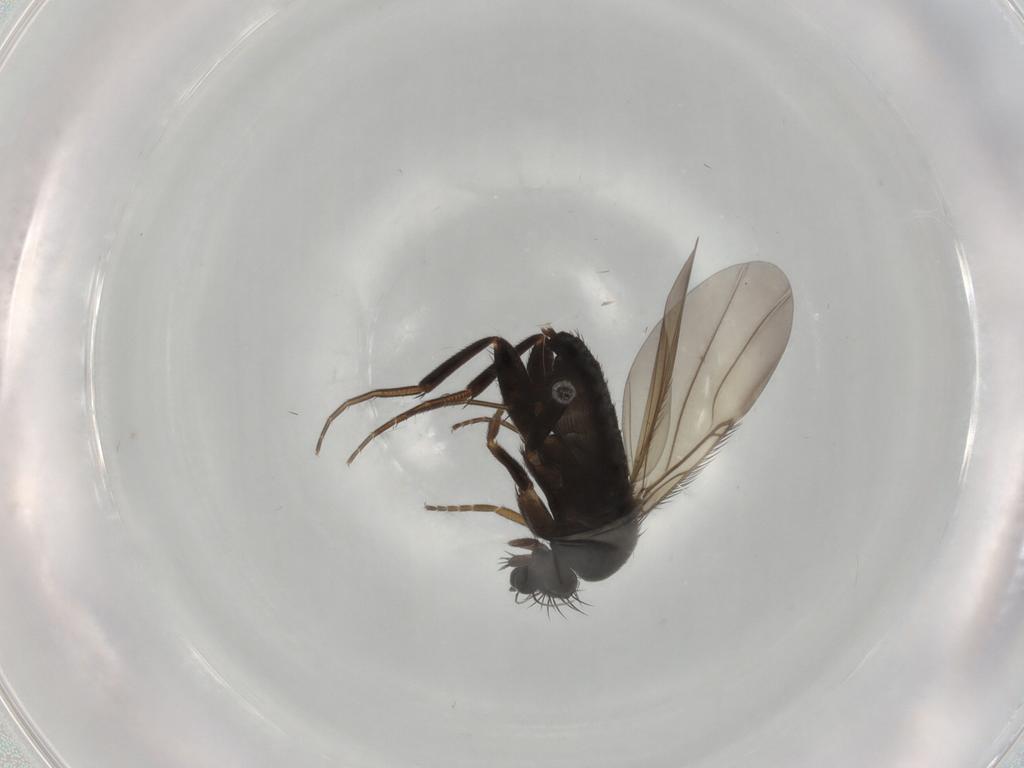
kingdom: Animalia
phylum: Arthropoda
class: Insecta
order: Diptera
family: Phoridae
